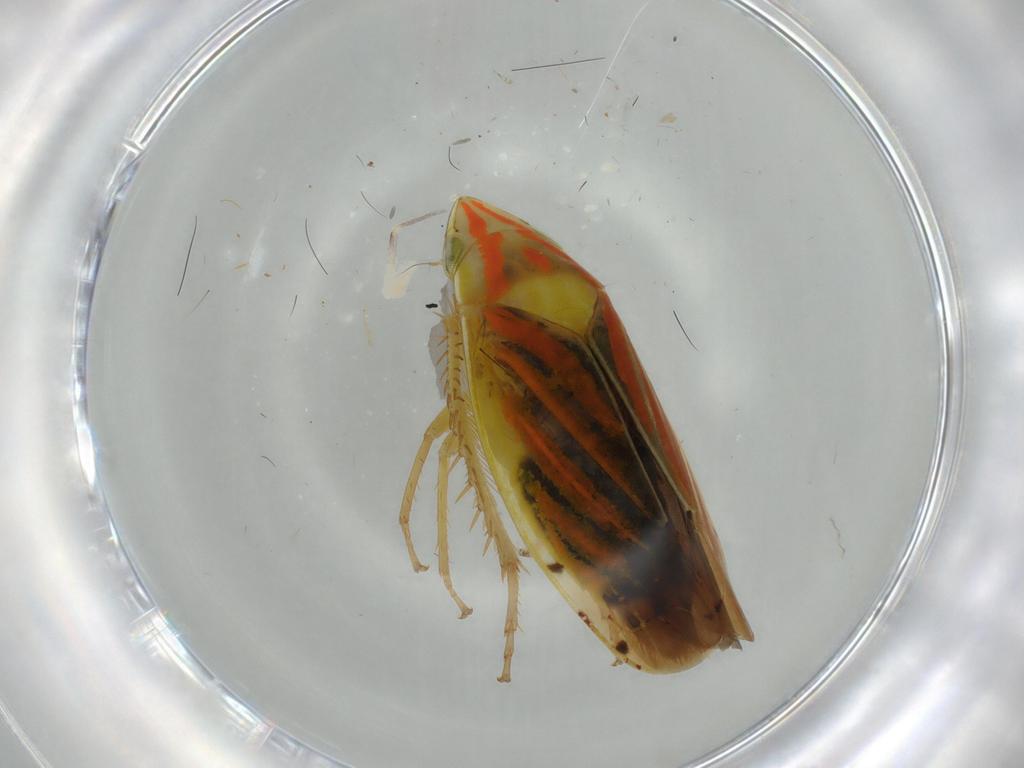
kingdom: Animalia
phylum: Arthropoda
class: Insecta
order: Hemiptera
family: Cicadellidae
